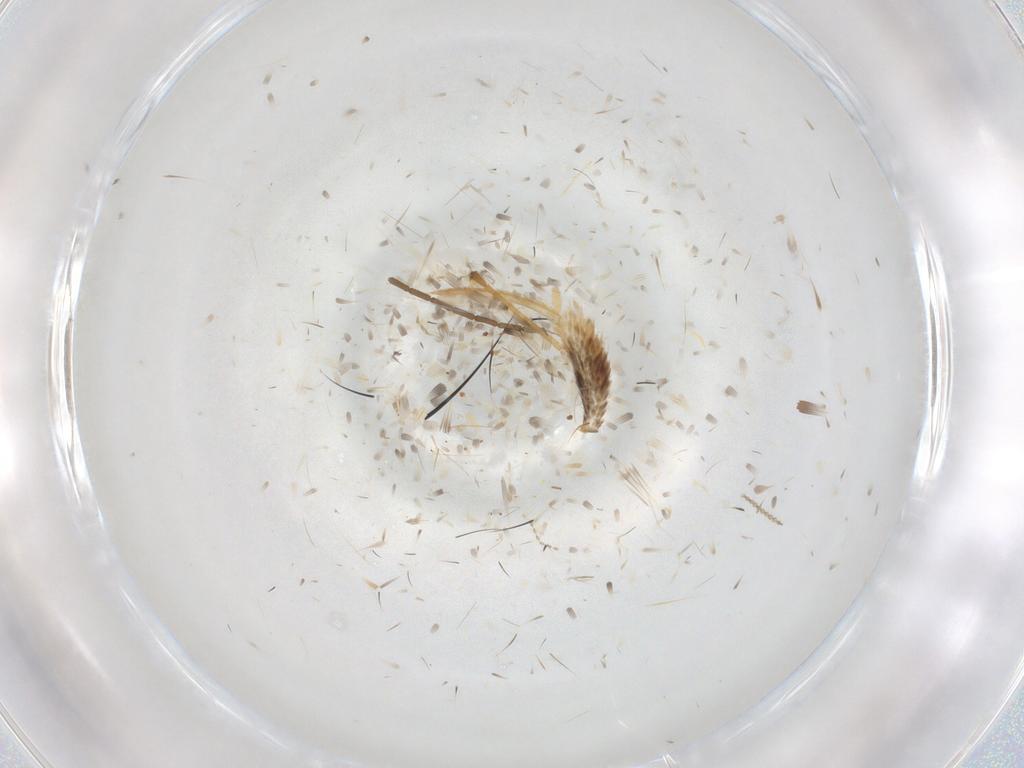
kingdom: Animalia
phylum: Arthropoda
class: Insecta
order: Diptera
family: Cecidomyiidae
